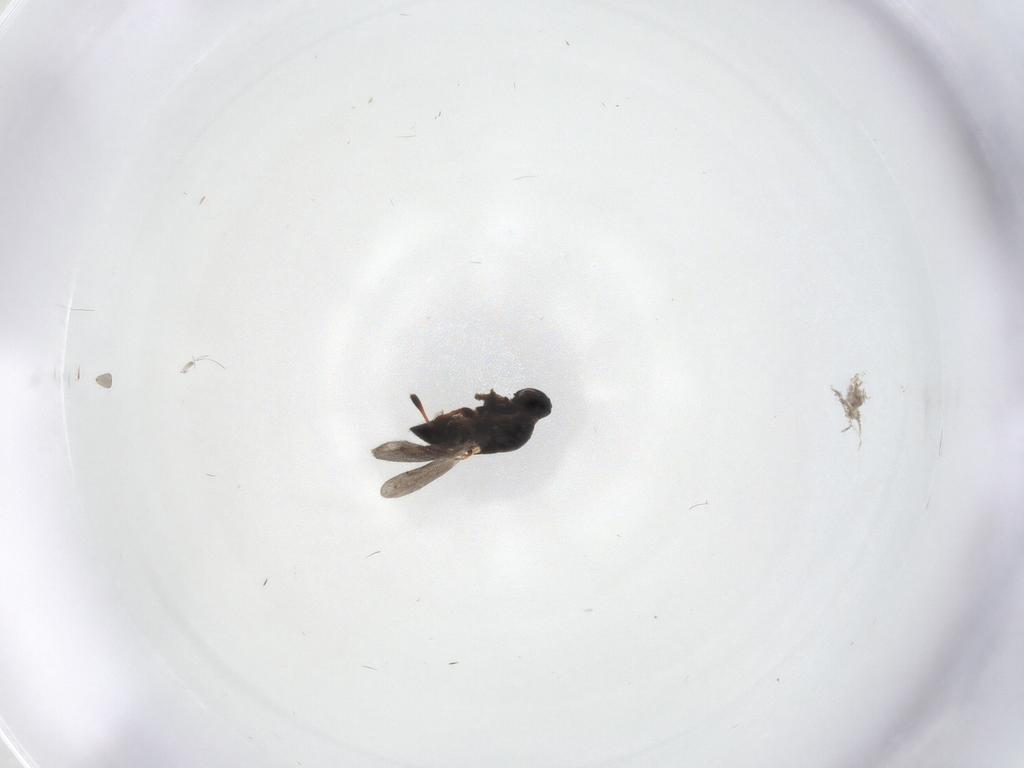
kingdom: Animalia
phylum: Arthropoda
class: Insecta
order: Hymenoptera
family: Platygastridae
